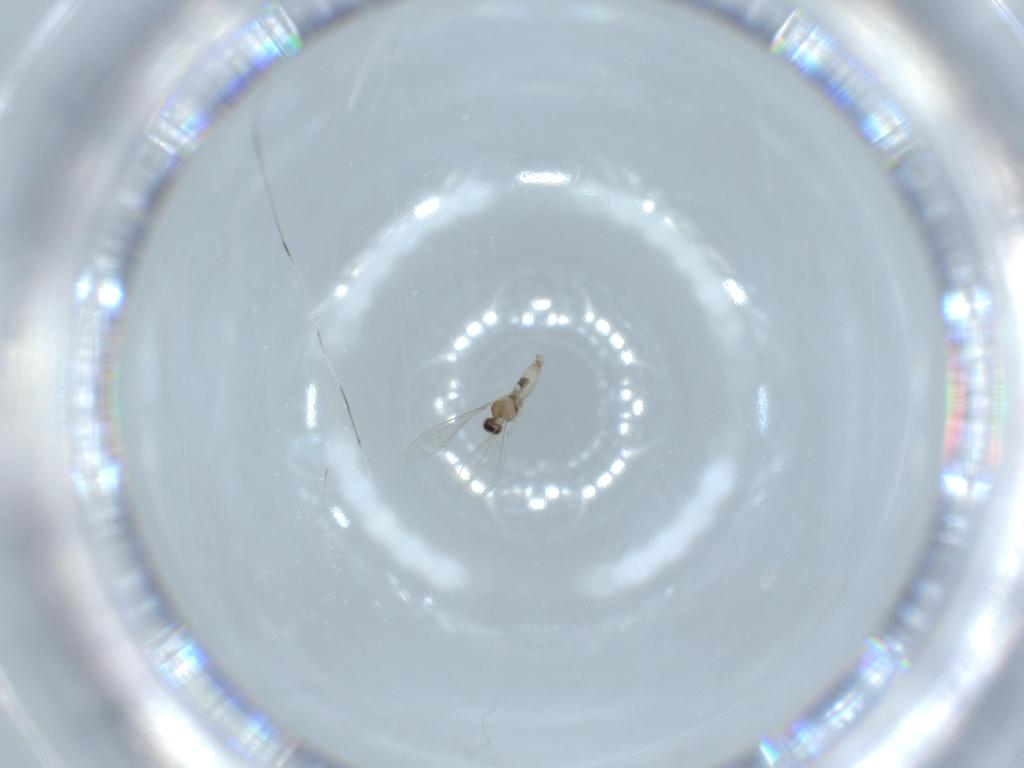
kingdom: Animalia
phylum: Arthropoda
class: Insecta
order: Diptera
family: Cecidomyiidae
